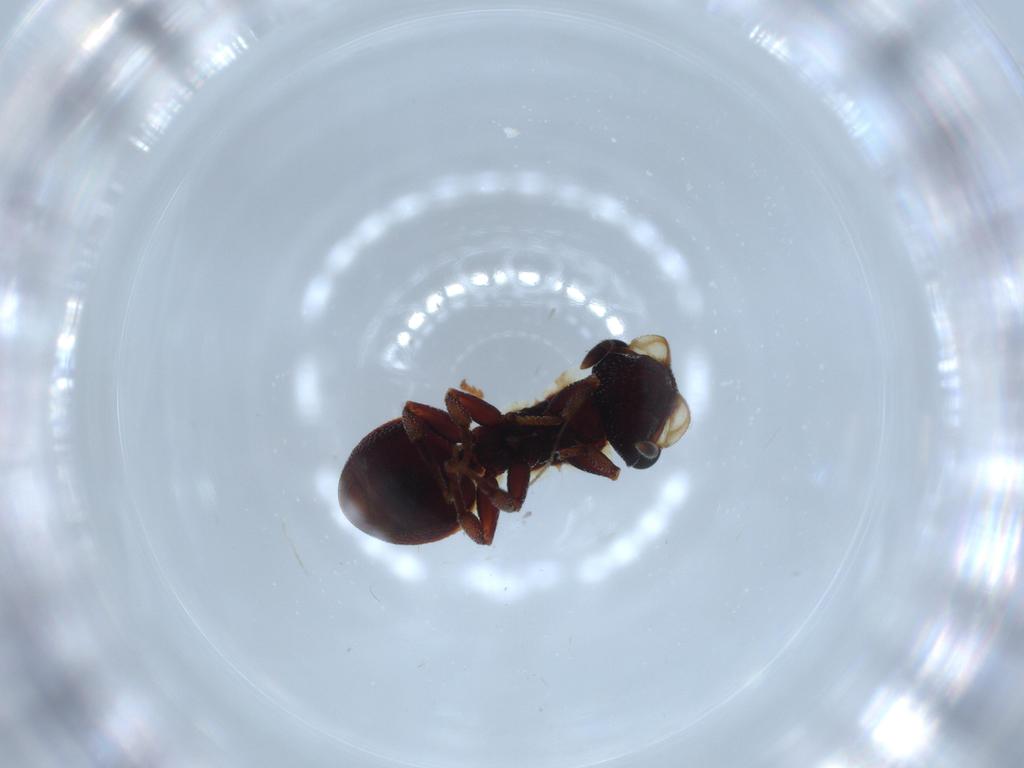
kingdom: Animalia
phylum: Arthropoda
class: Insecta
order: Hymenoptera
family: Formicidae
